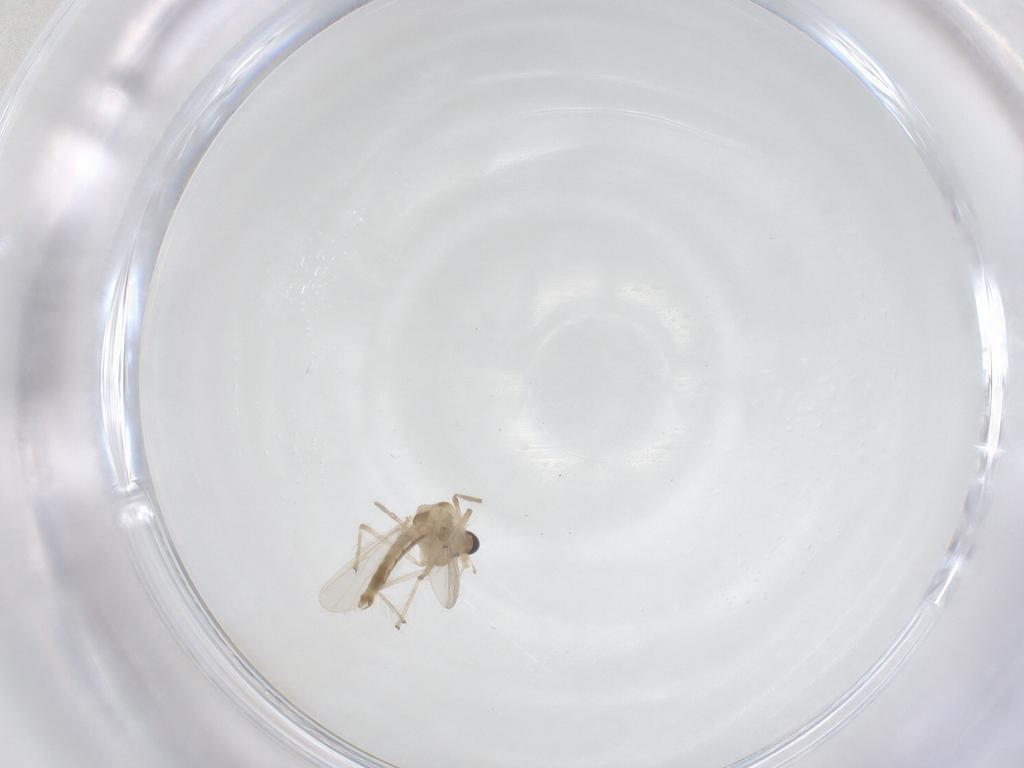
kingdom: Animalia
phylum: Arthropoda
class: Insecta
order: Diptera
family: Chironomidae
